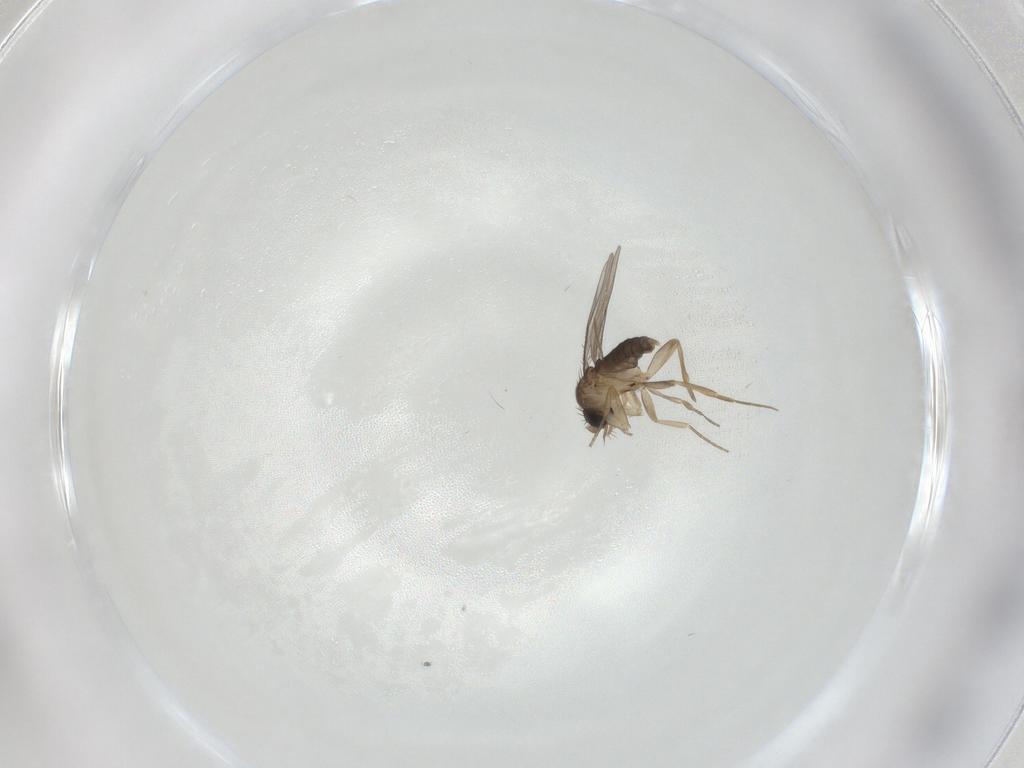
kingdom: Animalia
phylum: Arthropoda
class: Insecta
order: Diptera
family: Phoridae
